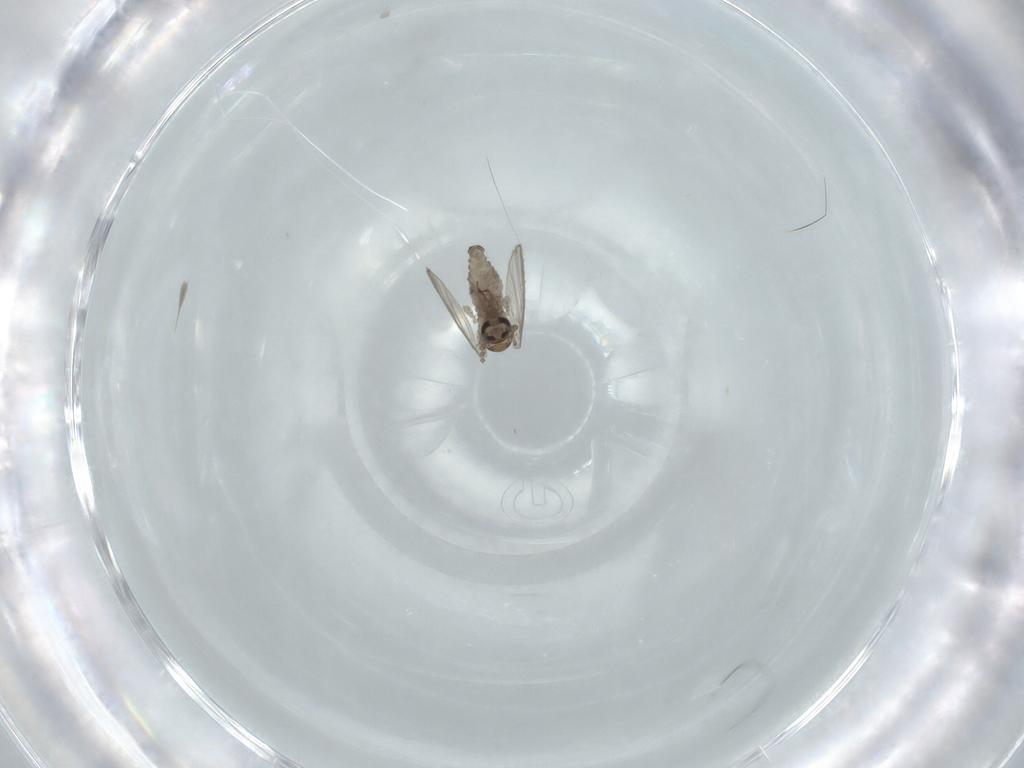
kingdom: Animalia
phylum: Arthropoda
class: Insecta
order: Diptera
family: Psychodidae
